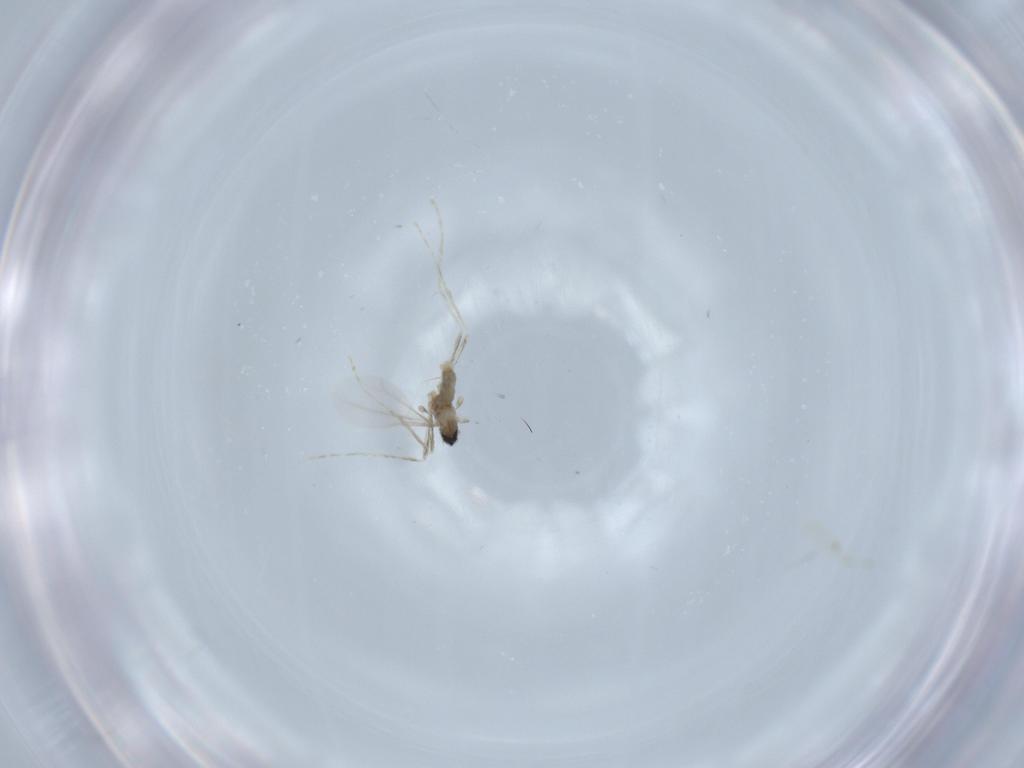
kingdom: Animalia
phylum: Arthropoda
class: Insecta
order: Diptera
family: Cecidomyiidae
